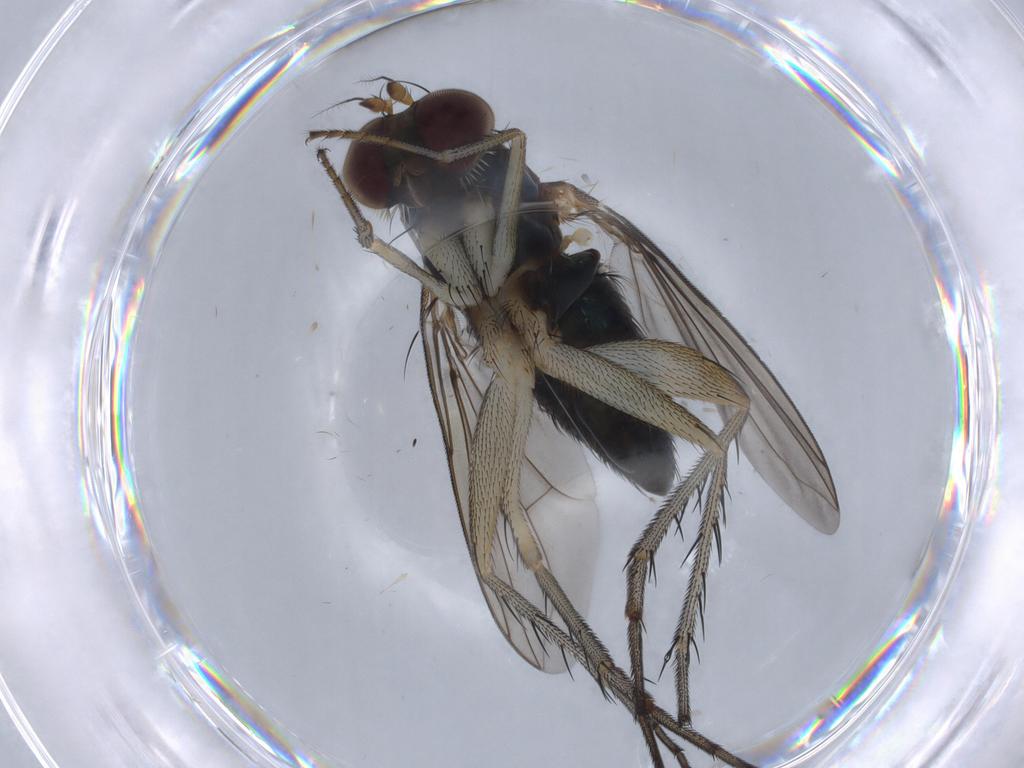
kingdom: Animalia
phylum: Arthropoda
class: Insecta
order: Diptera
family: Dolichopodidae
